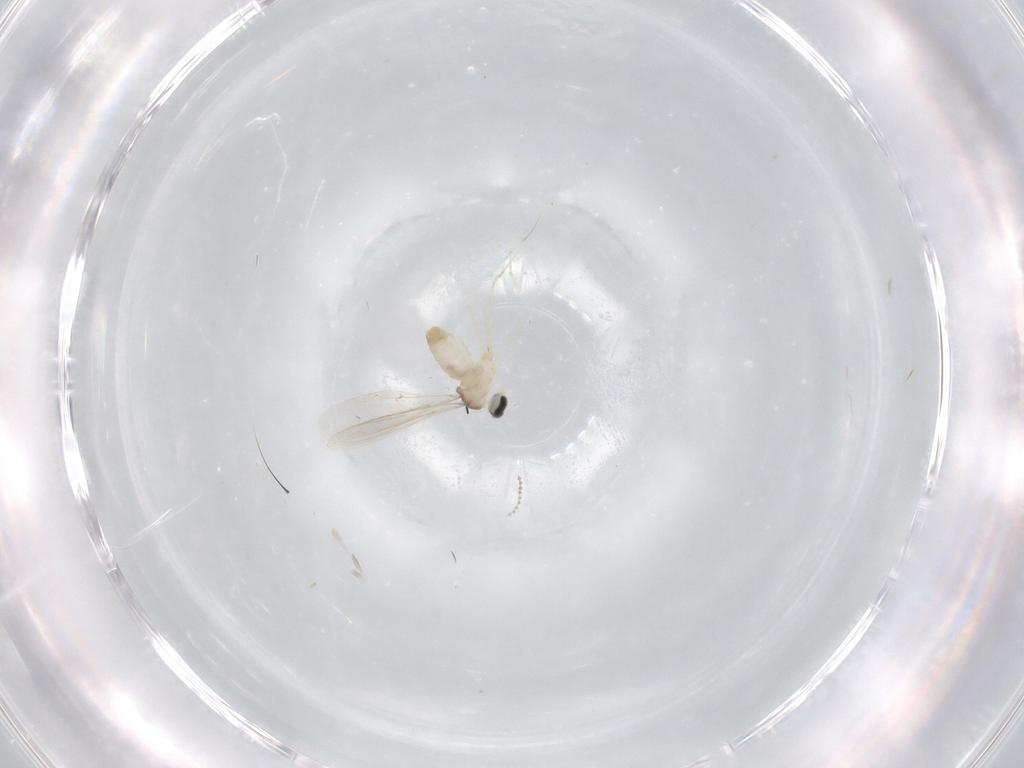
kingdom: Animalia
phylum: Arthropoda
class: Insecta
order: Diptera
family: Cecidomyiidae
